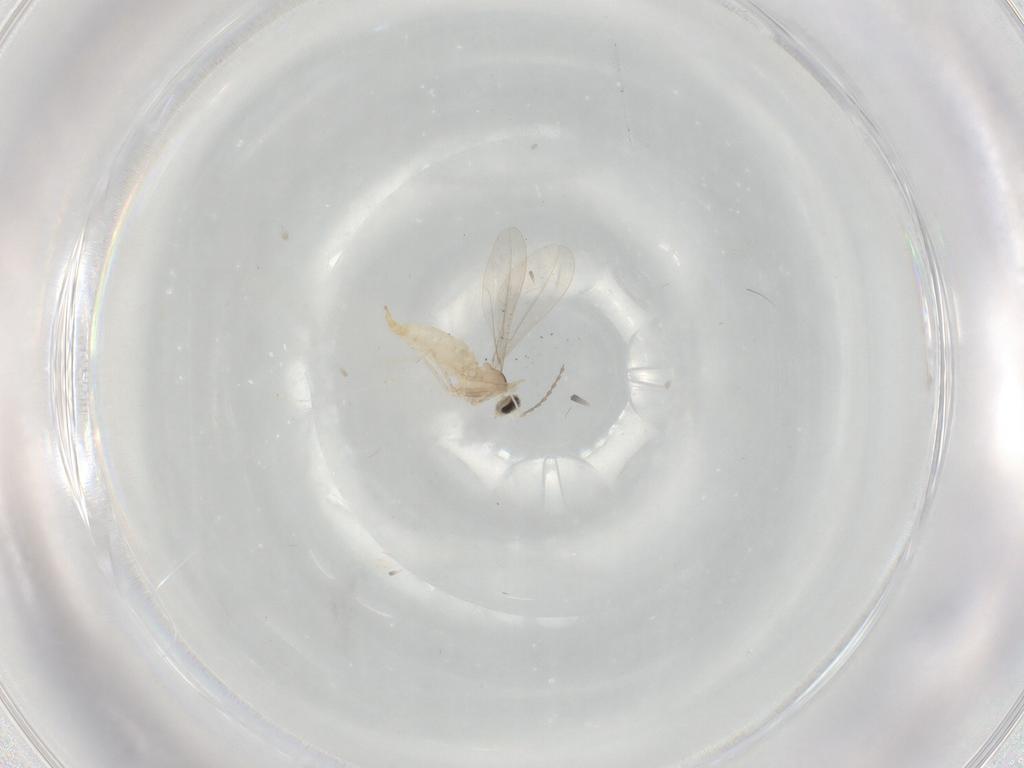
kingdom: Animalia
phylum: Arthropoda
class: Insecta
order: Diptera
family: Cecidomyiidae
